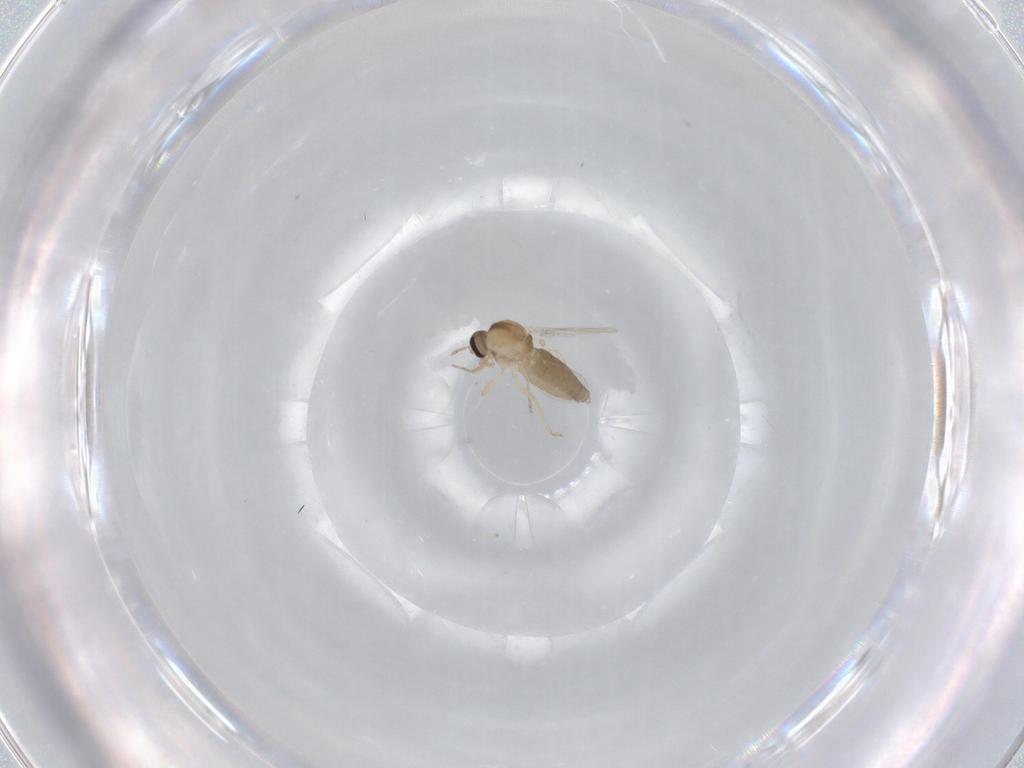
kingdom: Animalia
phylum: Arthropoda
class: Insecta
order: Diptera
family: Ceratopogonidae
